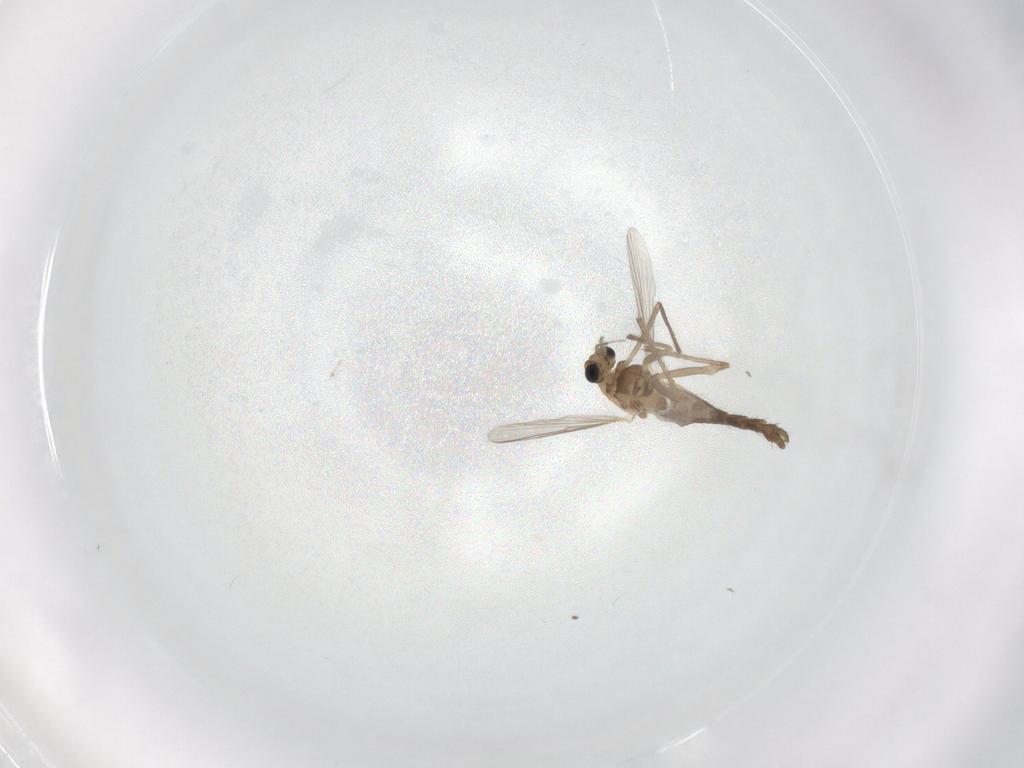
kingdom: Animalia
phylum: Arthropoda
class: Insecta
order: Diptera
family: Chironomidae
